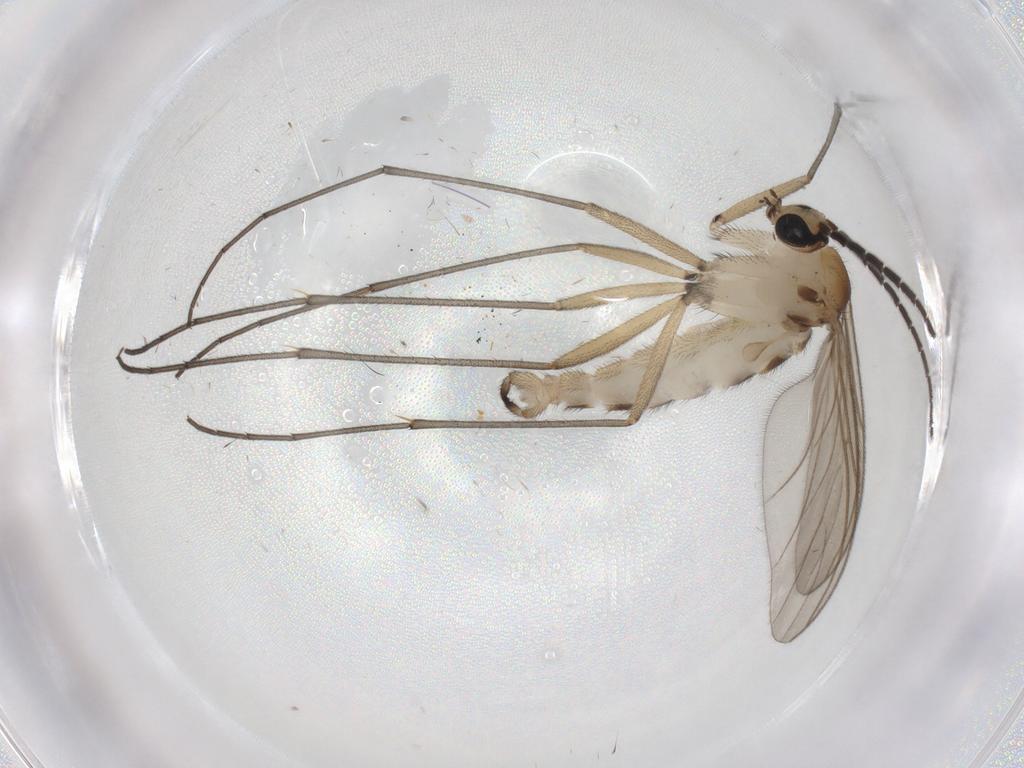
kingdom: Animalia
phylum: Arthropoda
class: Insecta
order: Diptera
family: Sciaridae
